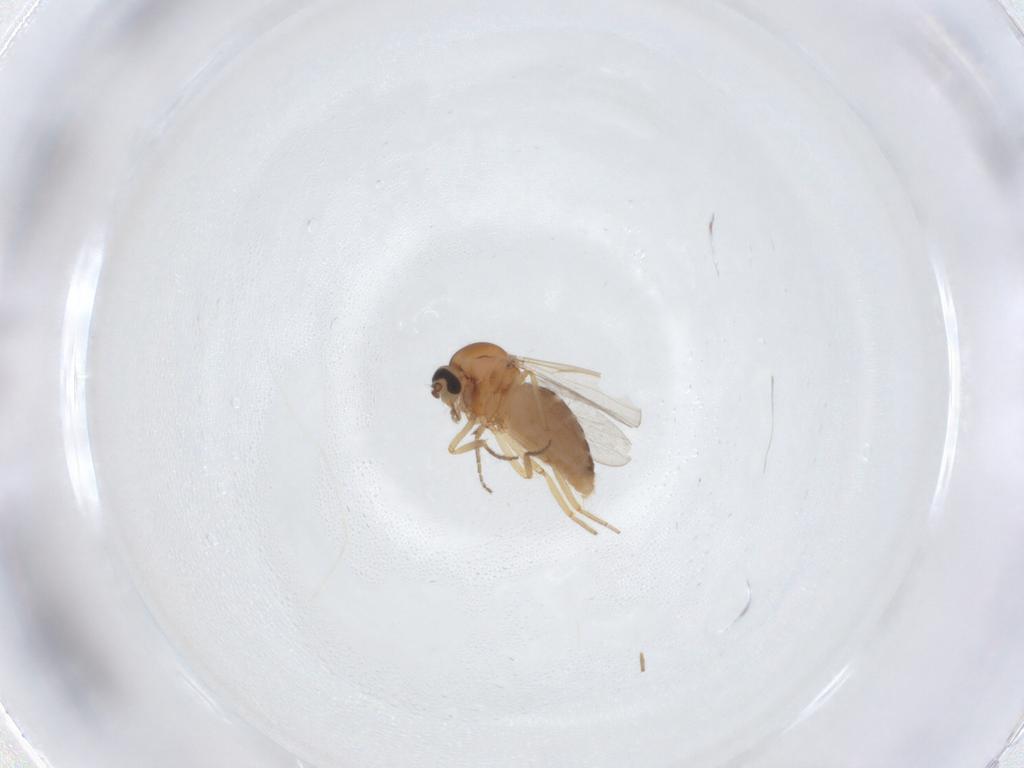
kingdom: Animalia
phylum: Arthropoda
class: Insecta
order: Diptera
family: Ceratopogonidae
